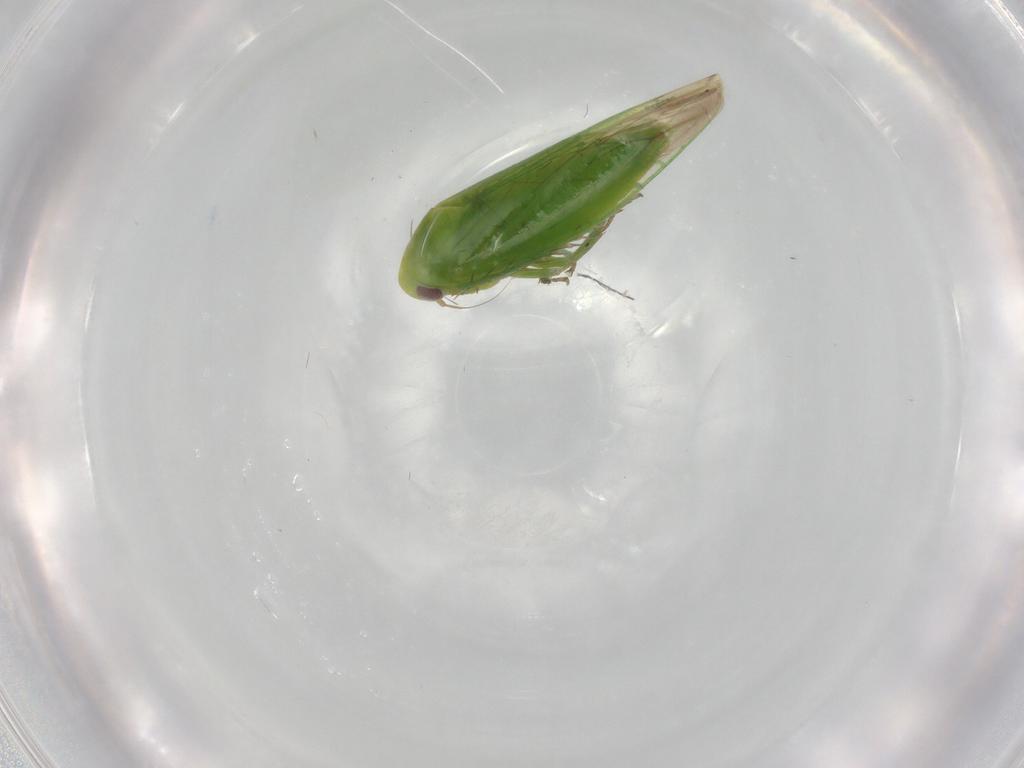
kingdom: Animalia
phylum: Arthropoda
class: Insecta
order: Hemiptera
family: Cicadellidae
